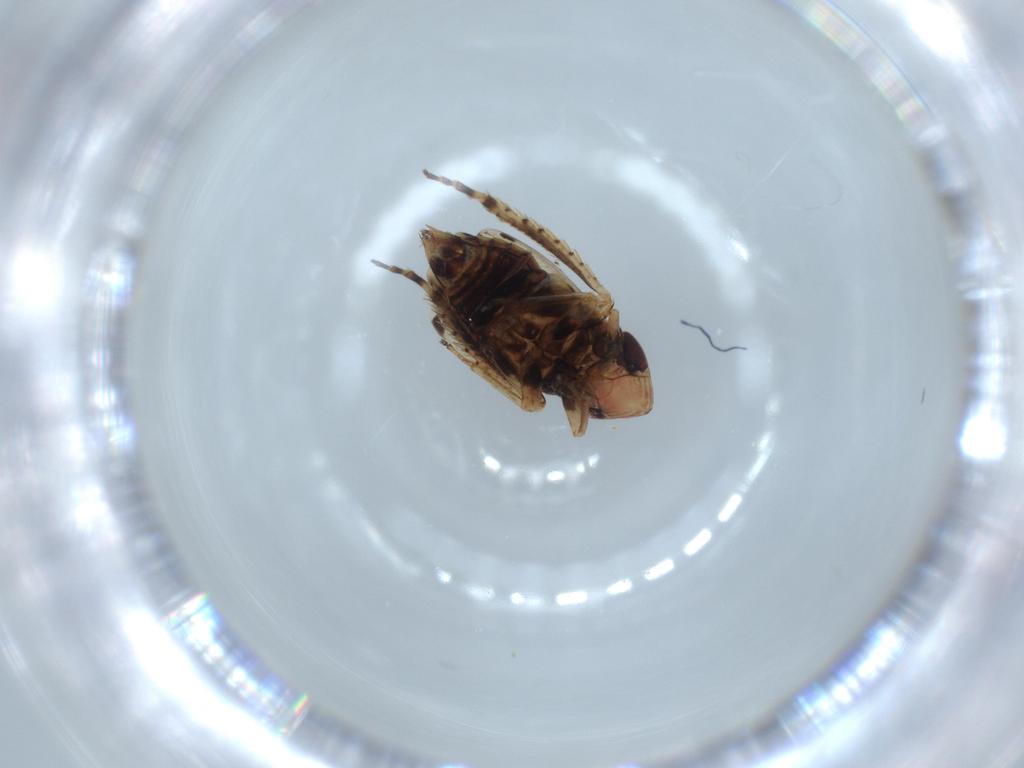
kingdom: Animalia
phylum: Arthropoda
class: Insecta
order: Hemiptera
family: Cicadellidae
